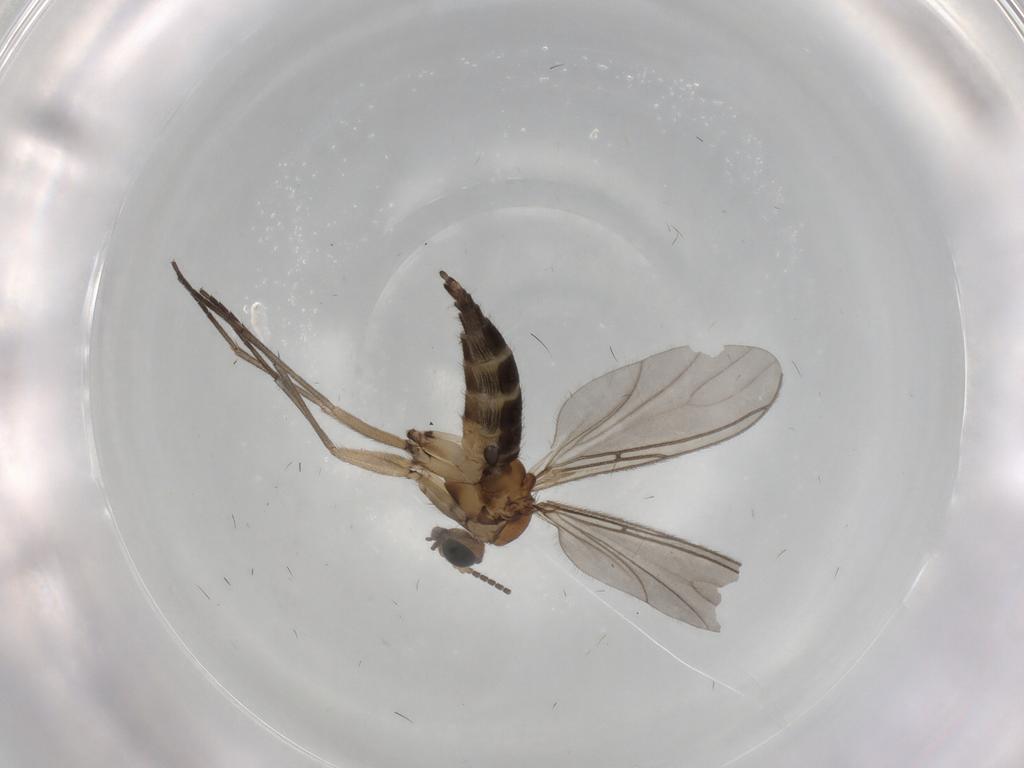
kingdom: Animalia
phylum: Arthropoda
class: Insecta
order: Diptera
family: Chironomidae
